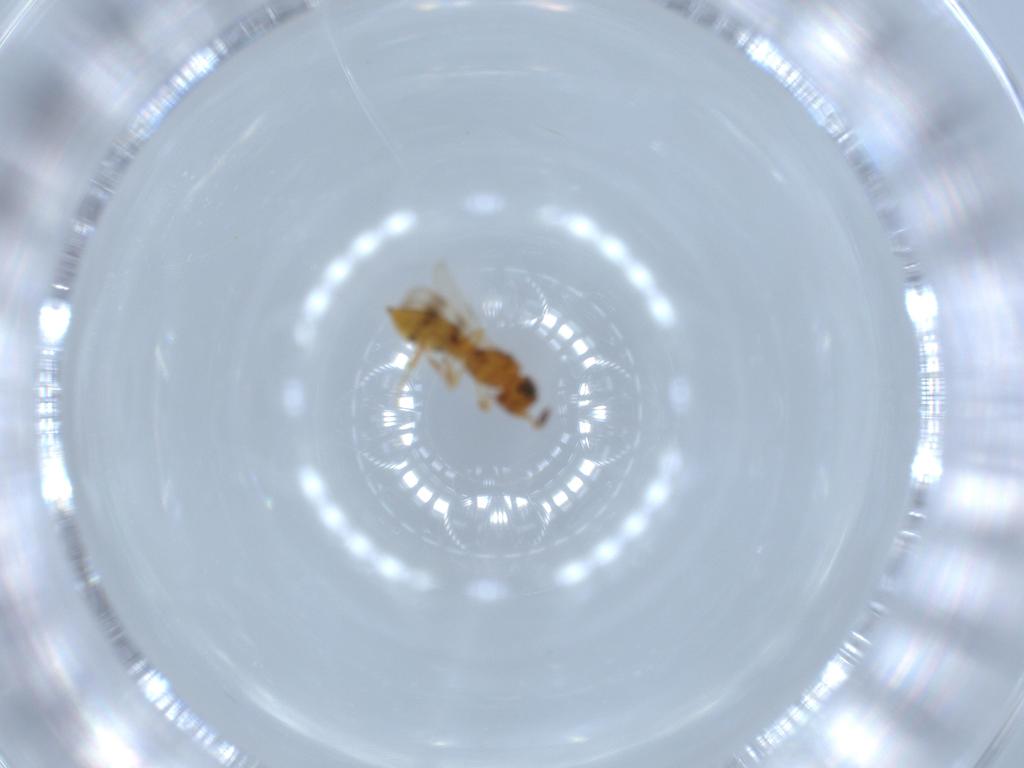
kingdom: Animalia
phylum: Arthropoda
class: Insecta
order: Hymenoptera
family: Scelionidae
